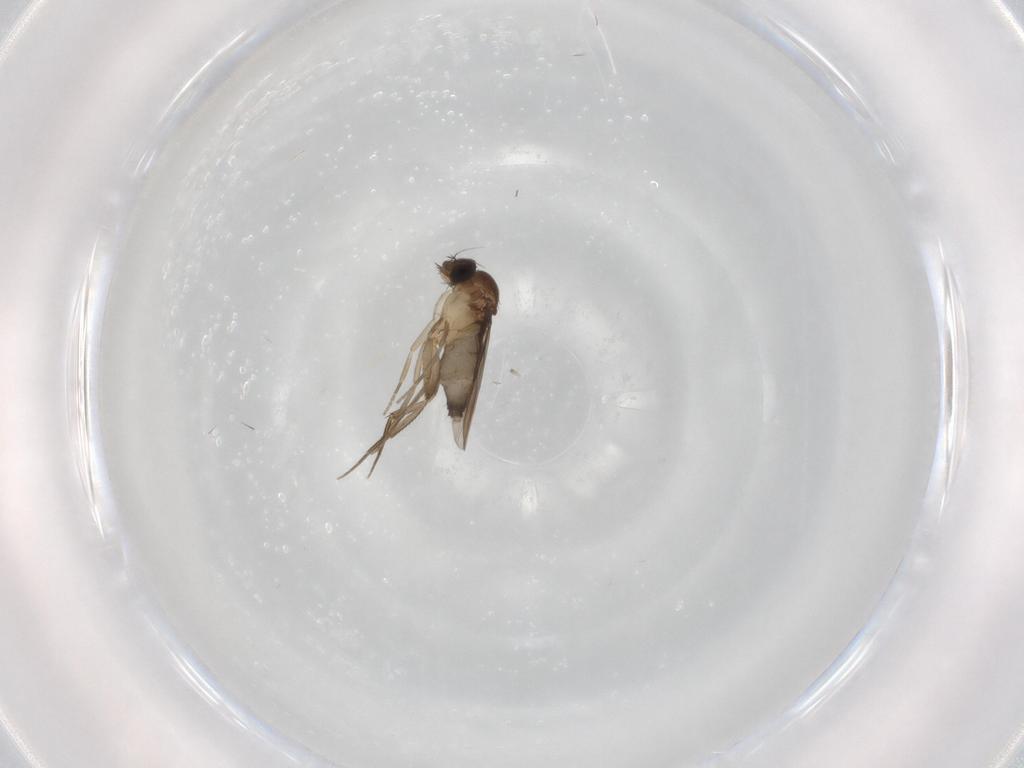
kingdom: Animalia
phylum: Arthropoda
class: Insecta
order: Diptera
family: Phoridae
